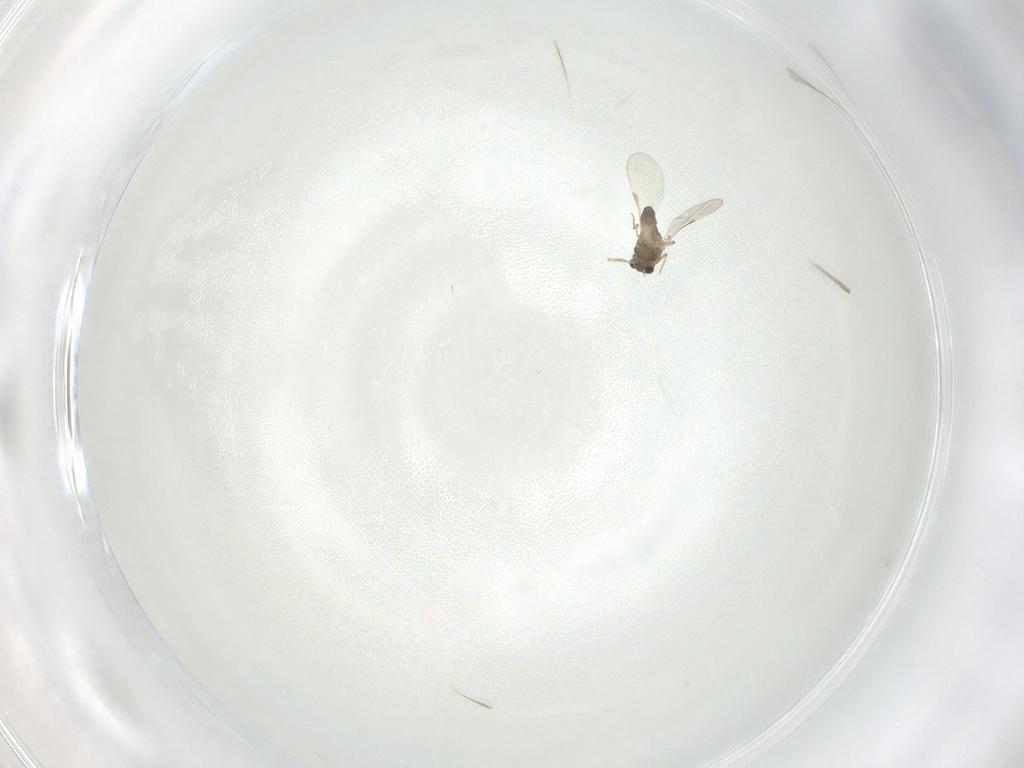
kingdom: Animalia
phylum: Arthropoda
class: Insecta
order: Diptera
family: Chironomidae
